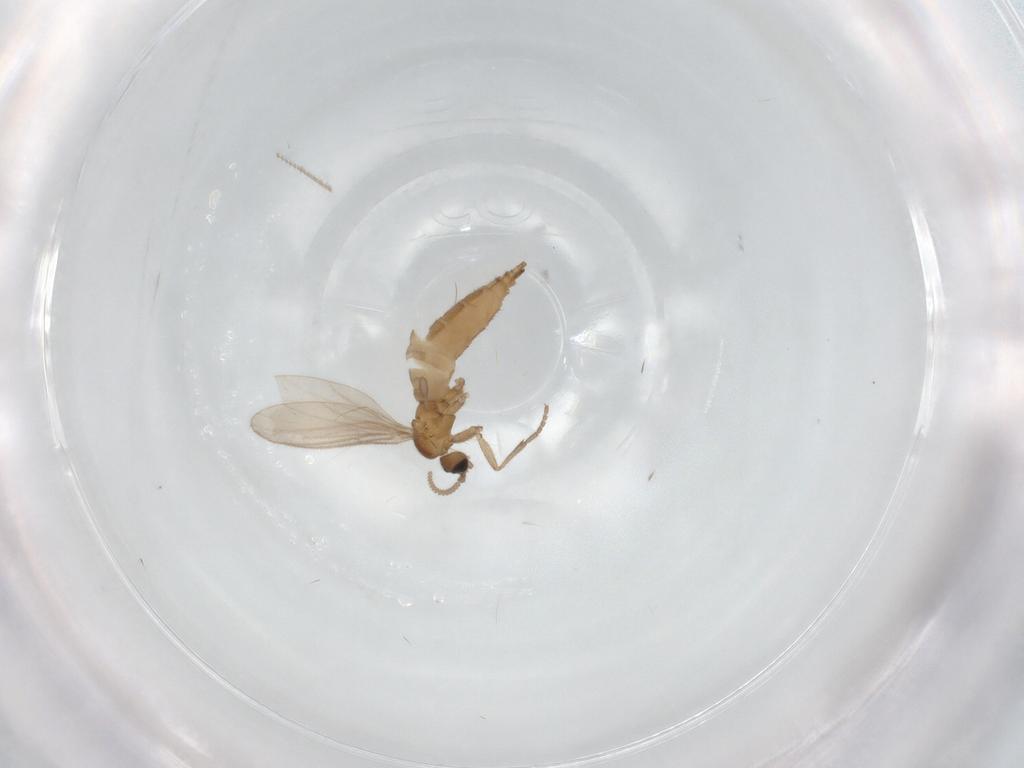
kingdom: Animalia
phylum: Arthropoda
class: Insecta
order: Diptera
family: Sciaridae
